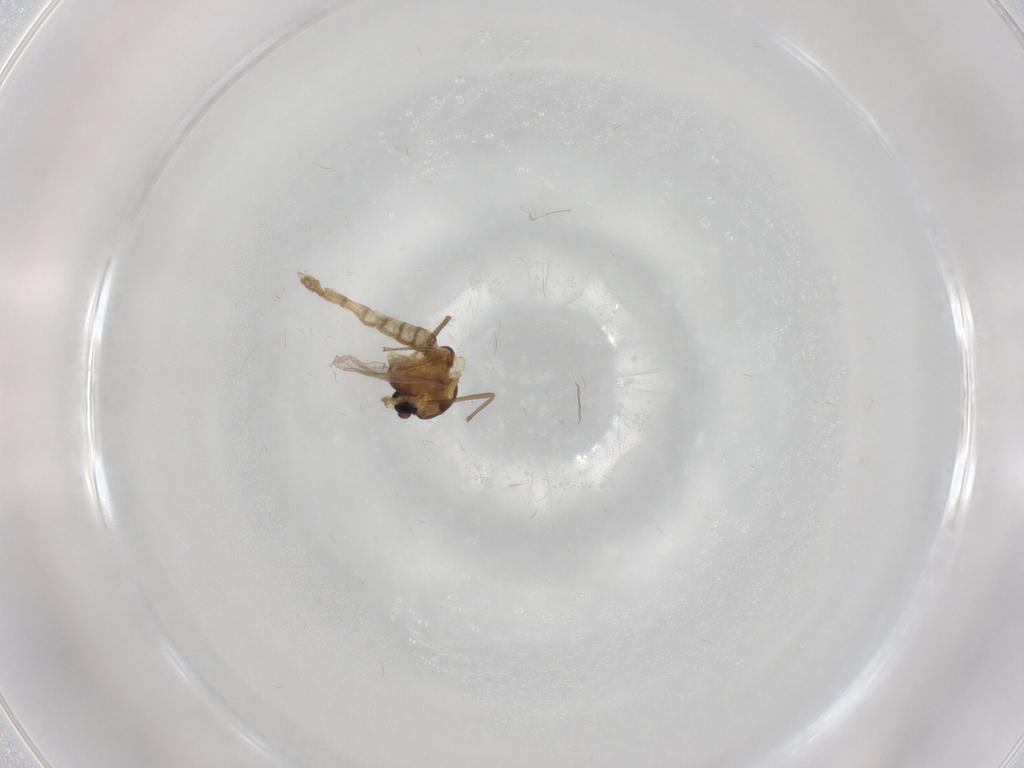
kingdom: Animalia
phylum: Arthropoda
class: Insecta
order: Diptera
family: Chironomidae
